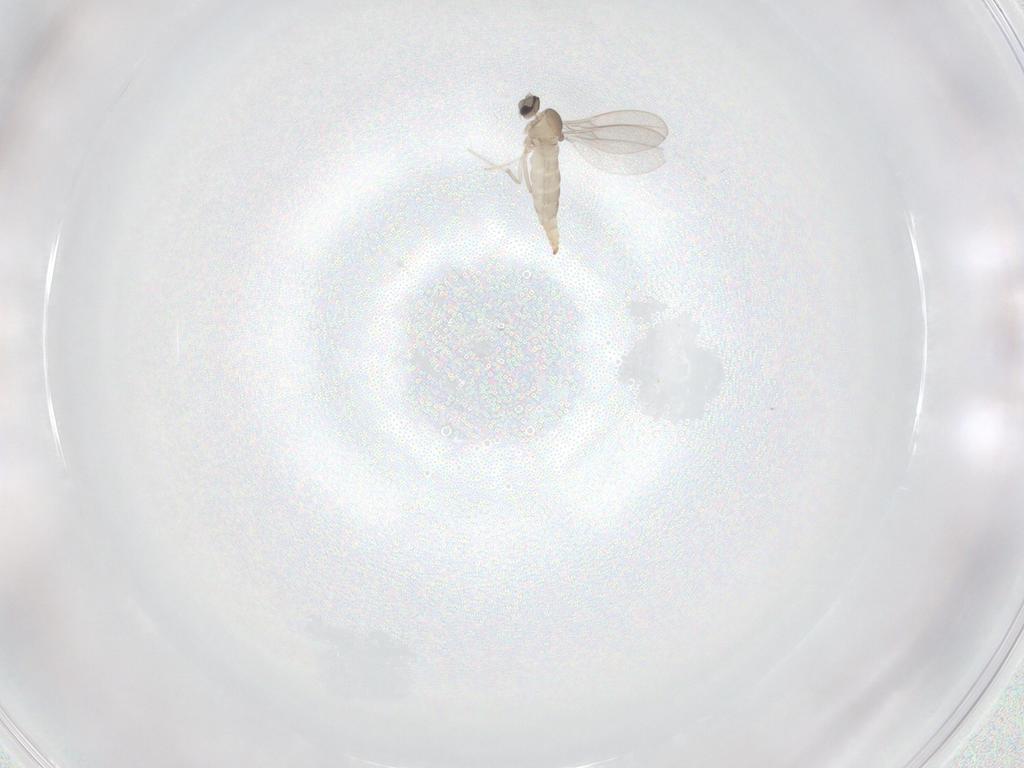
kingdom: Animalia
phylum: Arthropoda
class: Insecta
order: Diptera
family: Cecidomyiidae
